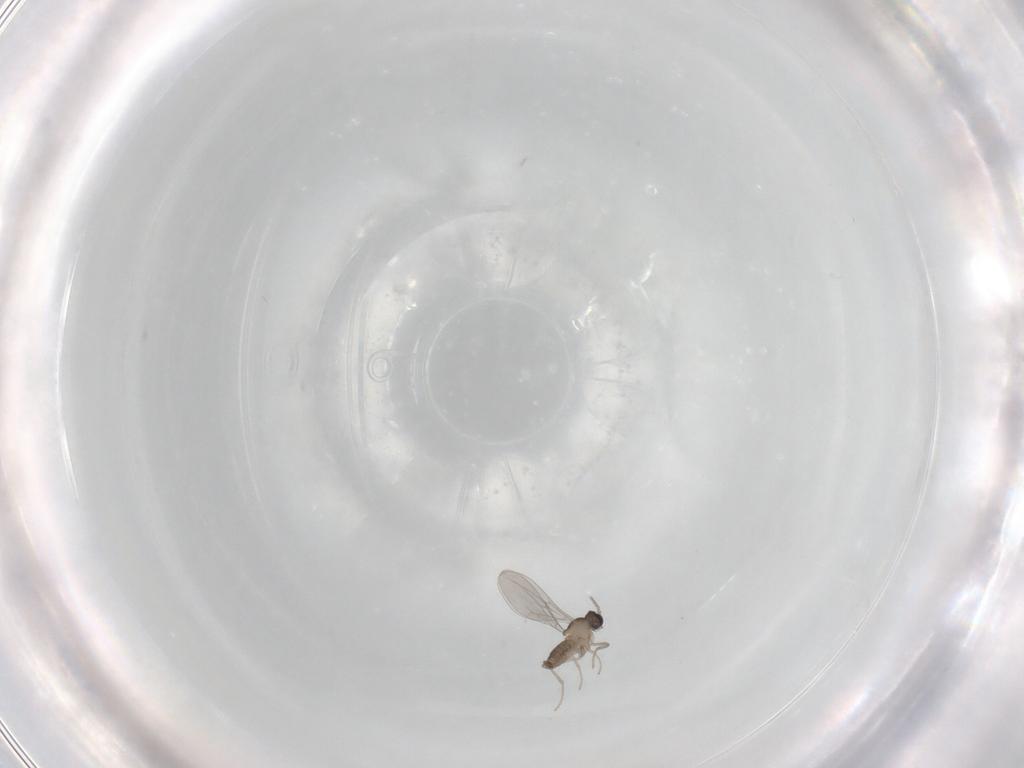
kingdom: Animalia
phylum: Arthropoda
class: Insecta
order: Diptera
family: Cecidomyiidae
